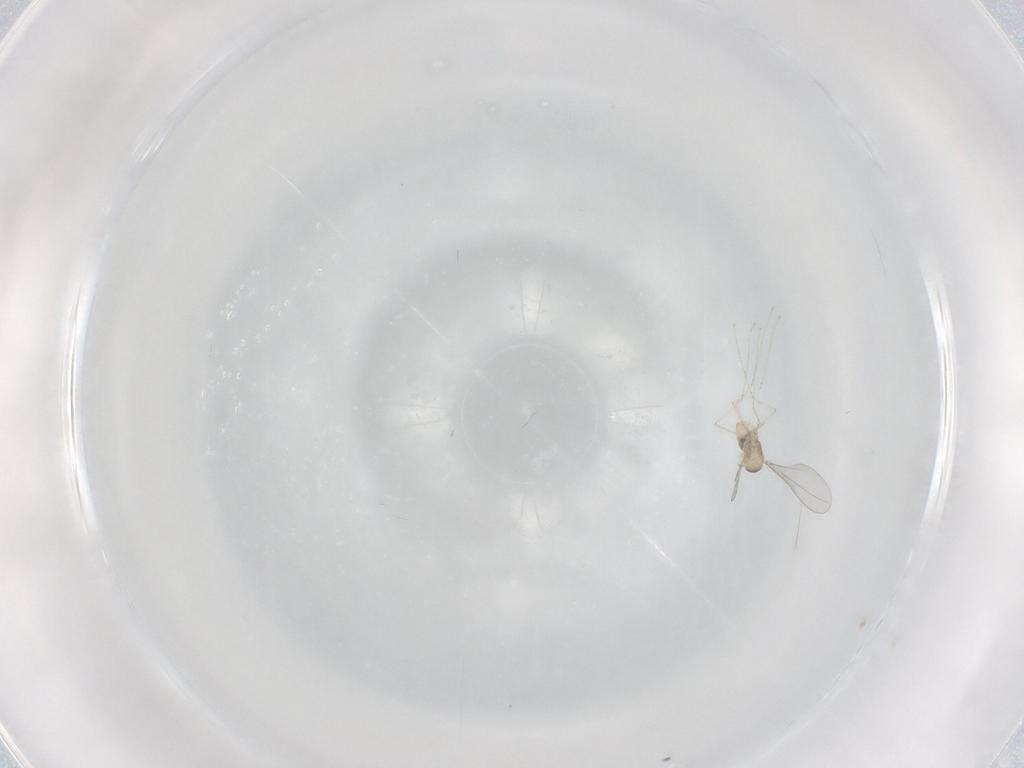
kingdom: Animalia
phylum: Arthropoda
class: Insecta
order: Diptera
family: Cecidomyiidae
